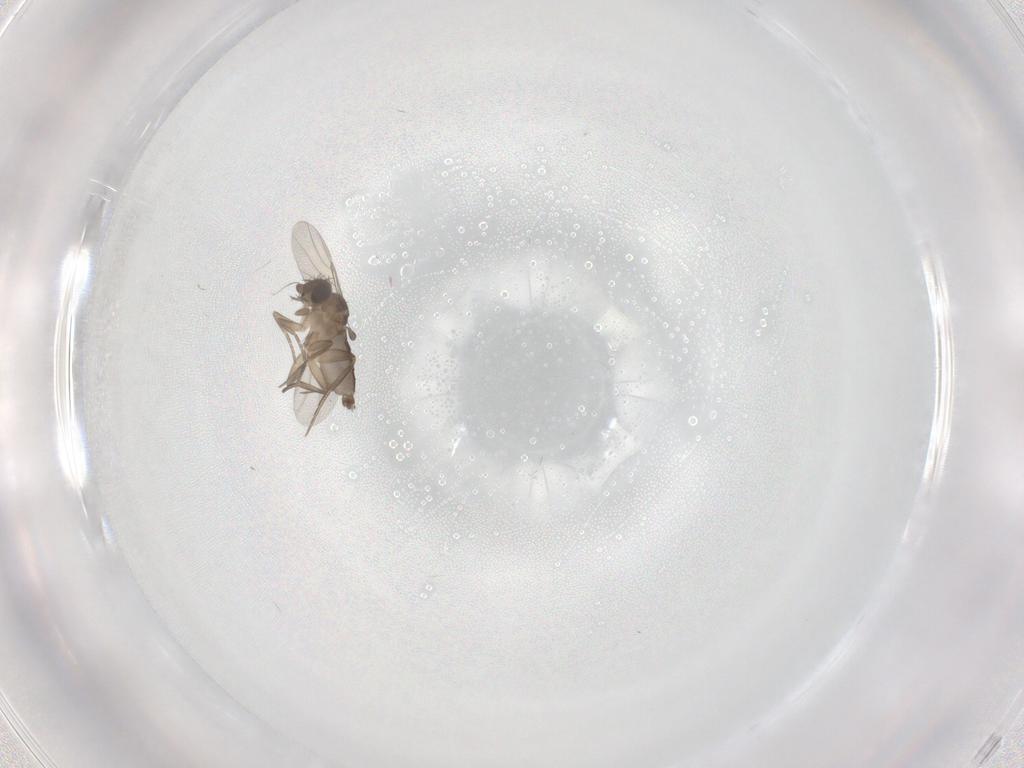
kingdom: Animalia
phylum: Arthropoda
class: Insecta
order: Diptera
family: Phoridae
